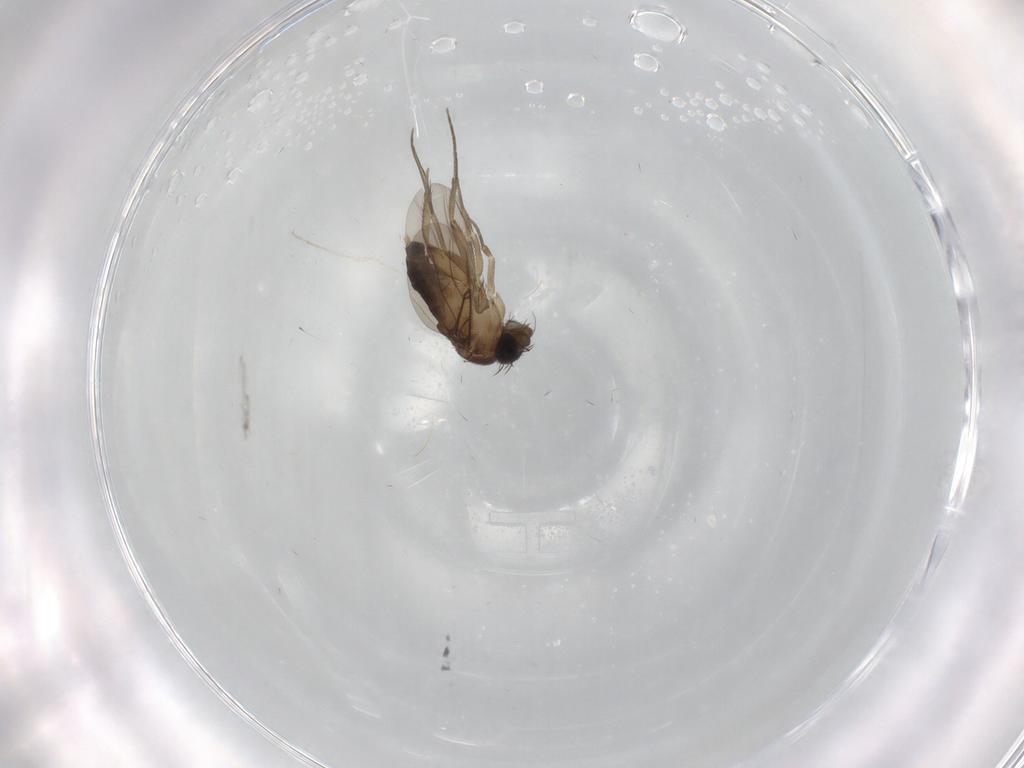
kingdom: Animalia
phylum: Arthropoda
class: Insecta
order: Diptera
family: Phoridae
